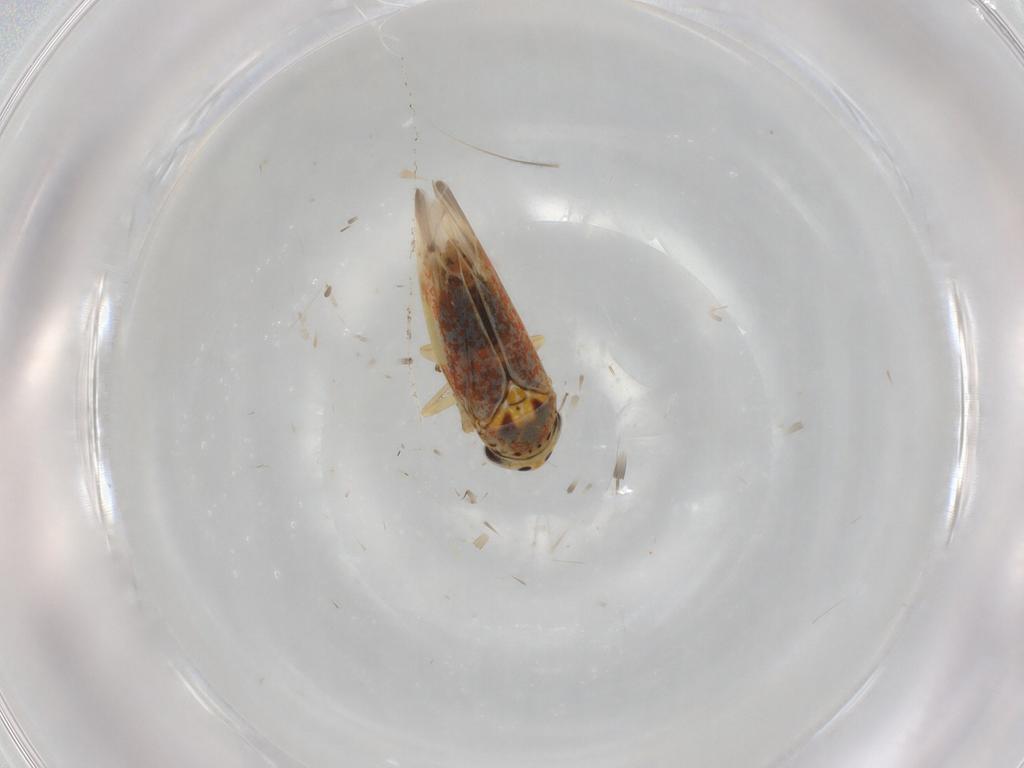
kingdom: Animalia
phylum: Arthropoda
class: Insecta
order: Hemiptera
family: Cicadellidae
